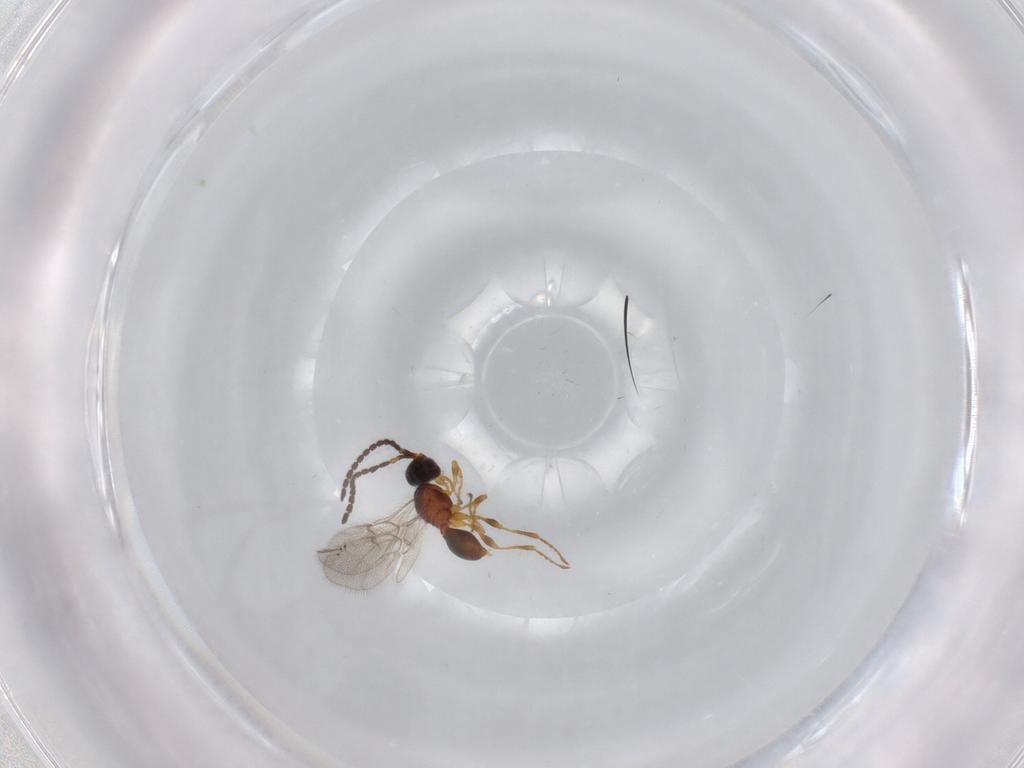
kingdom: Animalia
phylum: Arthropoda
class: Insecta
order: Hymenoptera
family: Diapriidae
